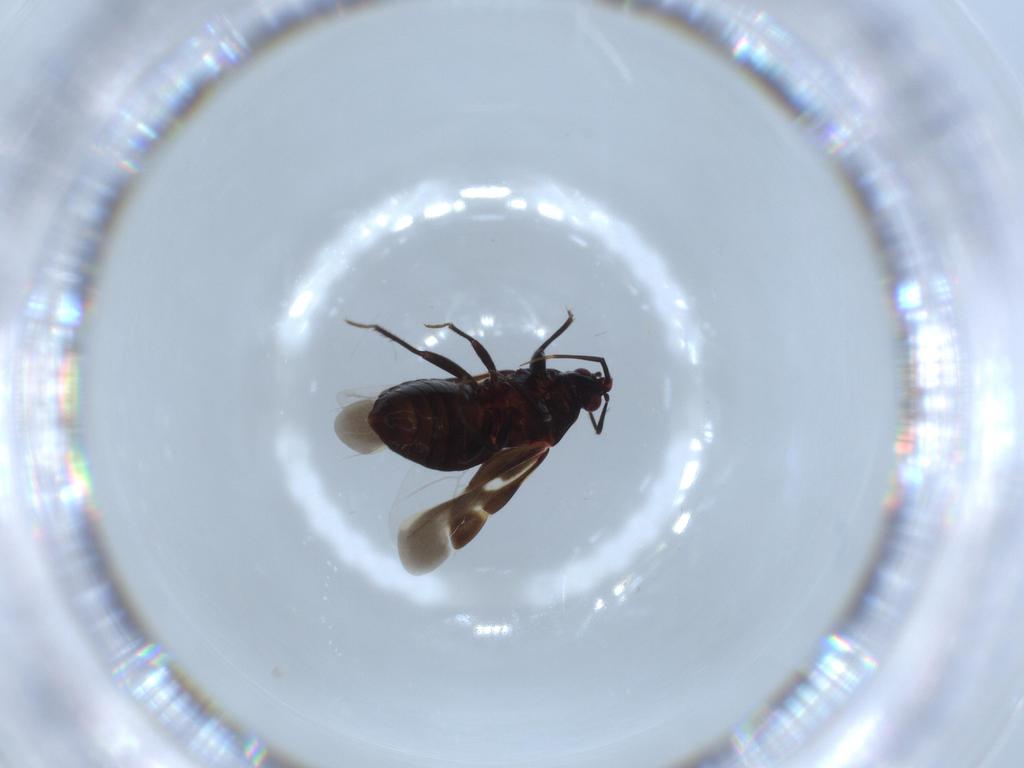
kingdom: Animalia
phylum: Arthropoda
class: Insecta
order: Hemiptera
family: Anthocoridae
